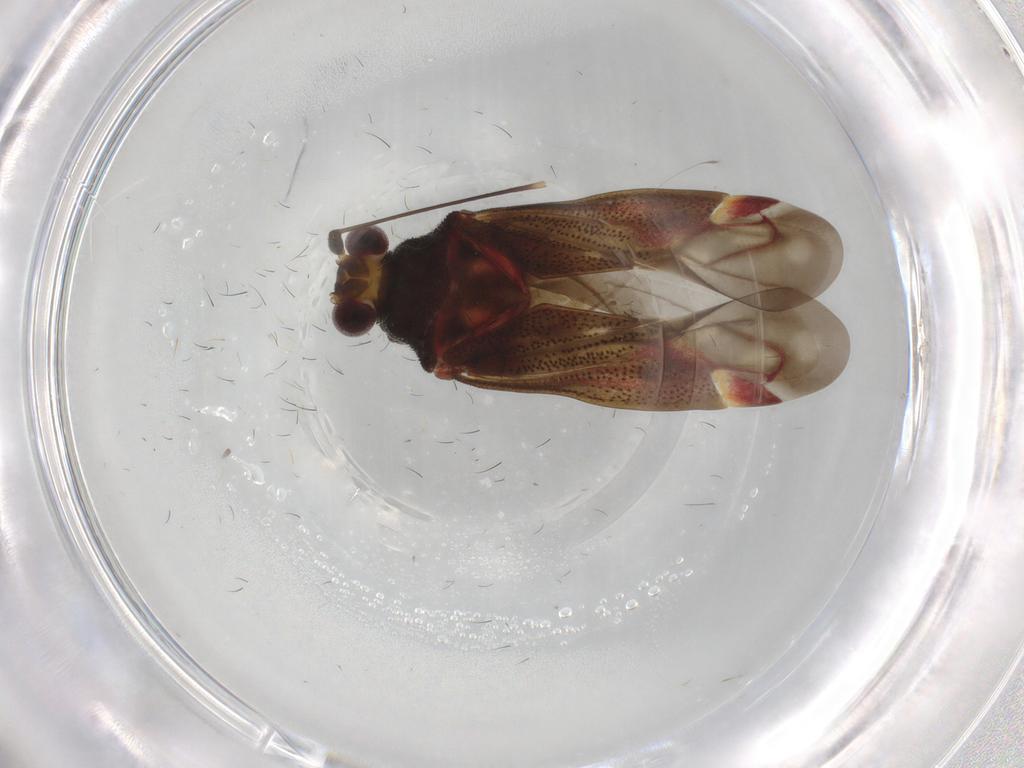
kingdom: Animalia
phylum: Arthropoda
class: Insecta
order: Hemiptera
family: Miridae
